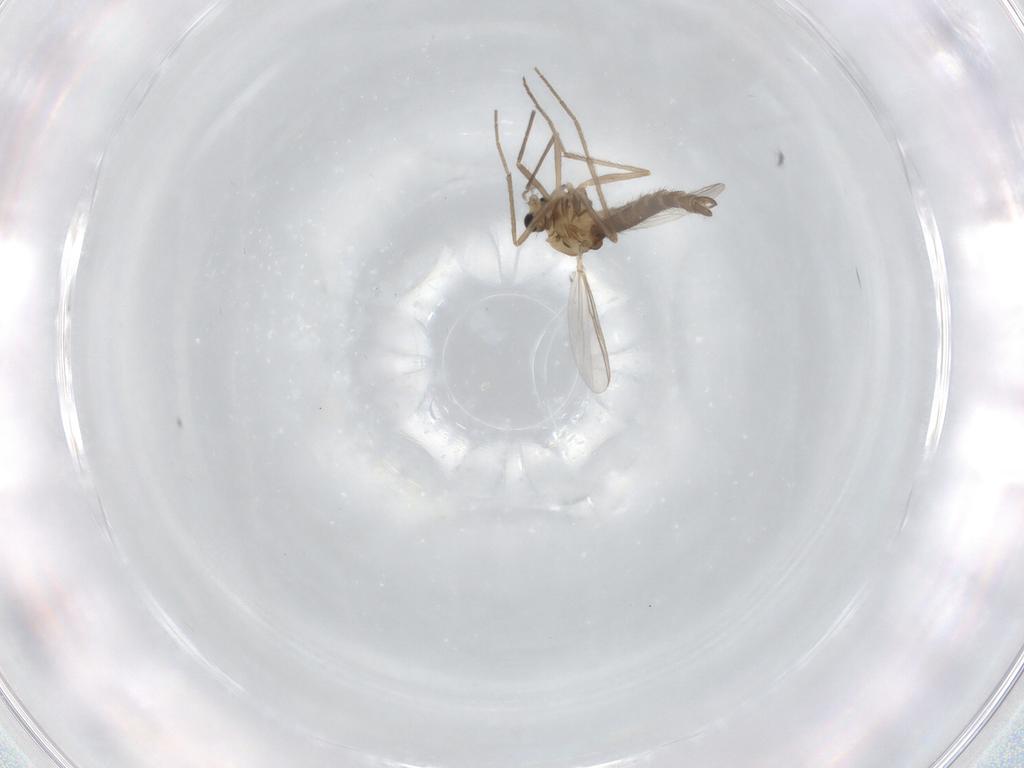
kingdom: Animalia
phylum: Arthropoda
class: Insecta
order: Diptera
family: Chironomidae
